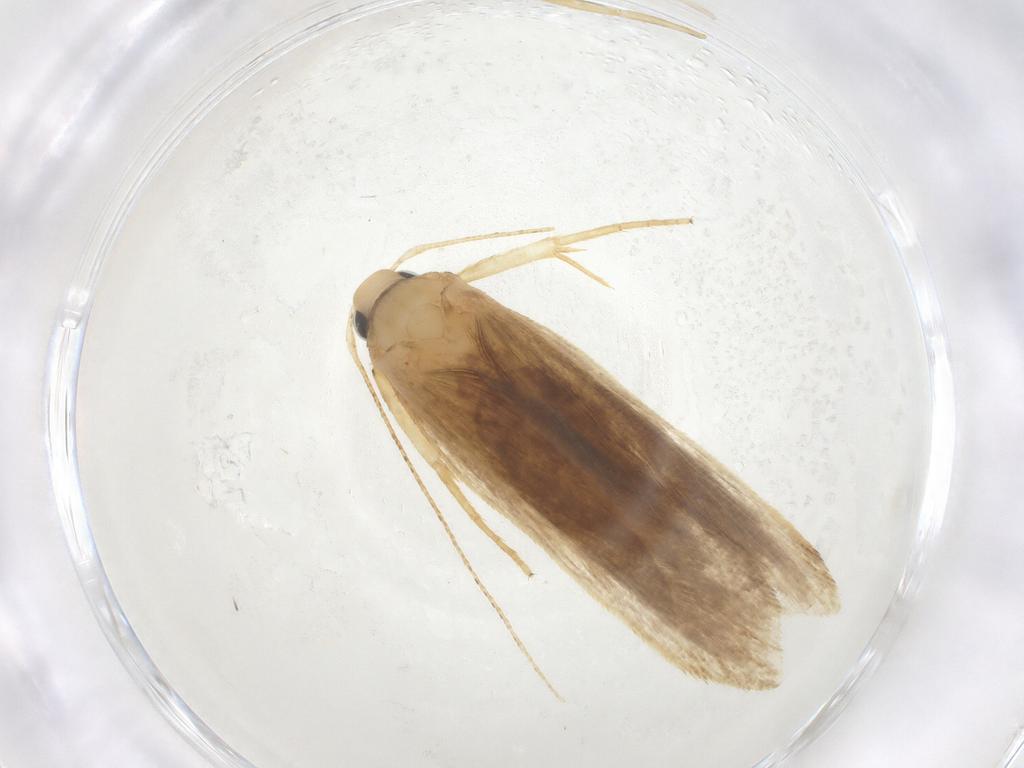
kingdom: Animalia
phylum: Arthropoda
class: Insecta
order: Lepidoptera
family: Gelechiidae
